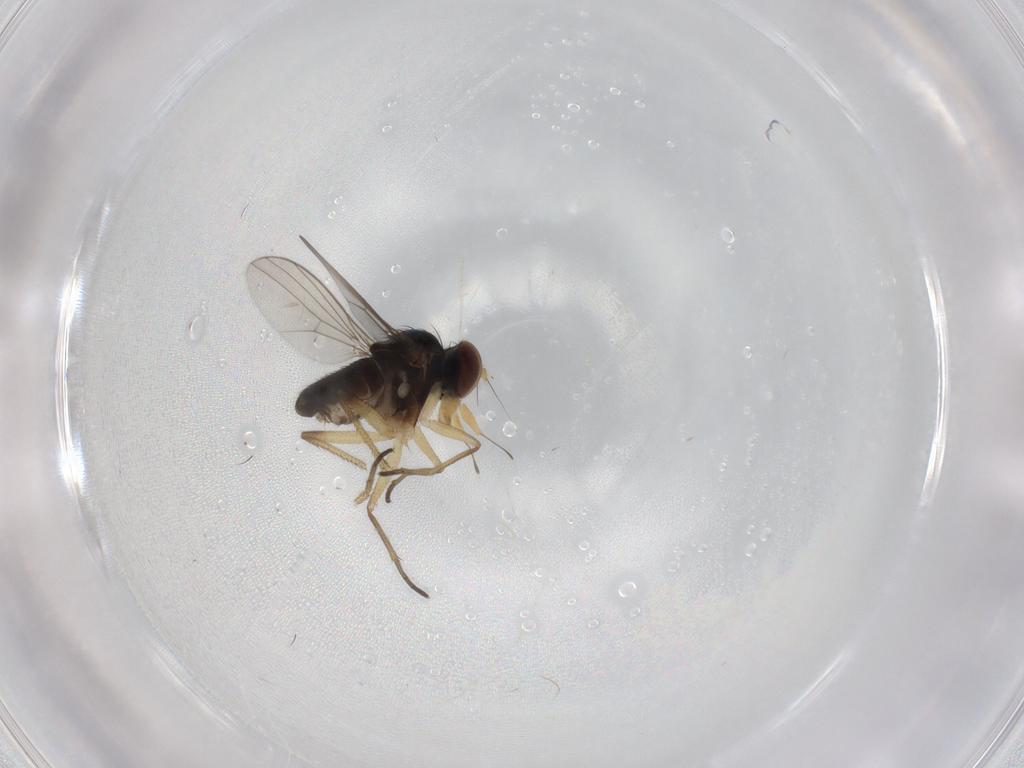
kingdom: Animalia
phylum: Arthropoda
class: Insecta
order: Diptera
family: Dolichopodidae
